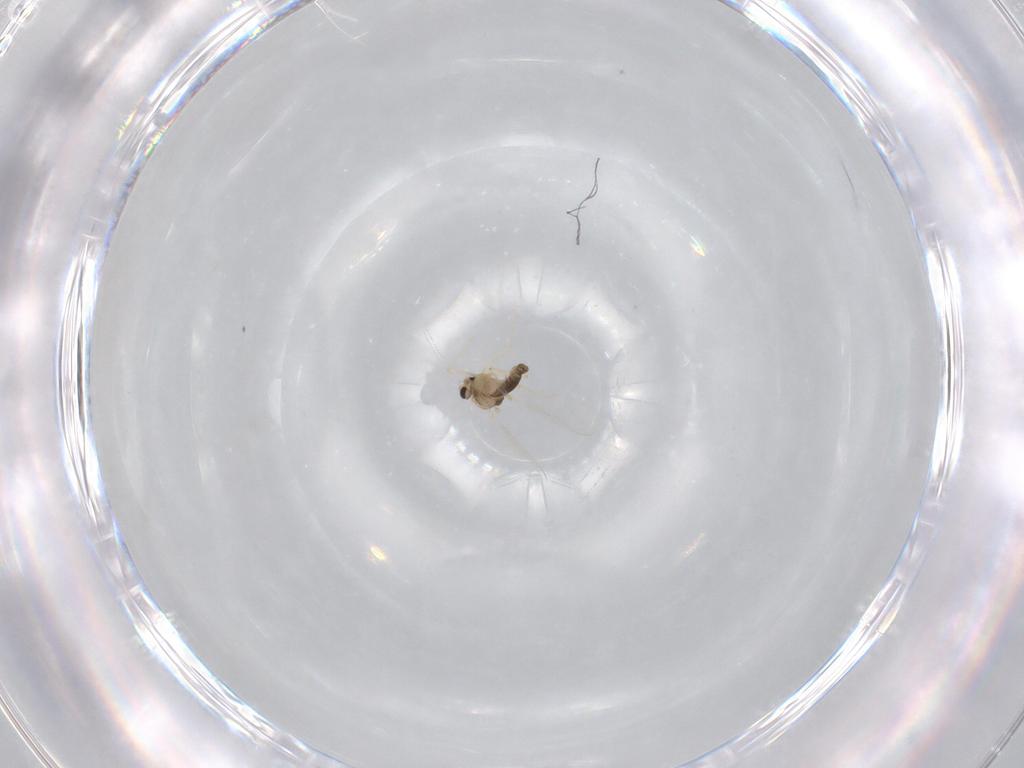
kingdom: Animalia
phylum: Arthropoda
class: Insecta
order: Diptera
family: Chironomidae
